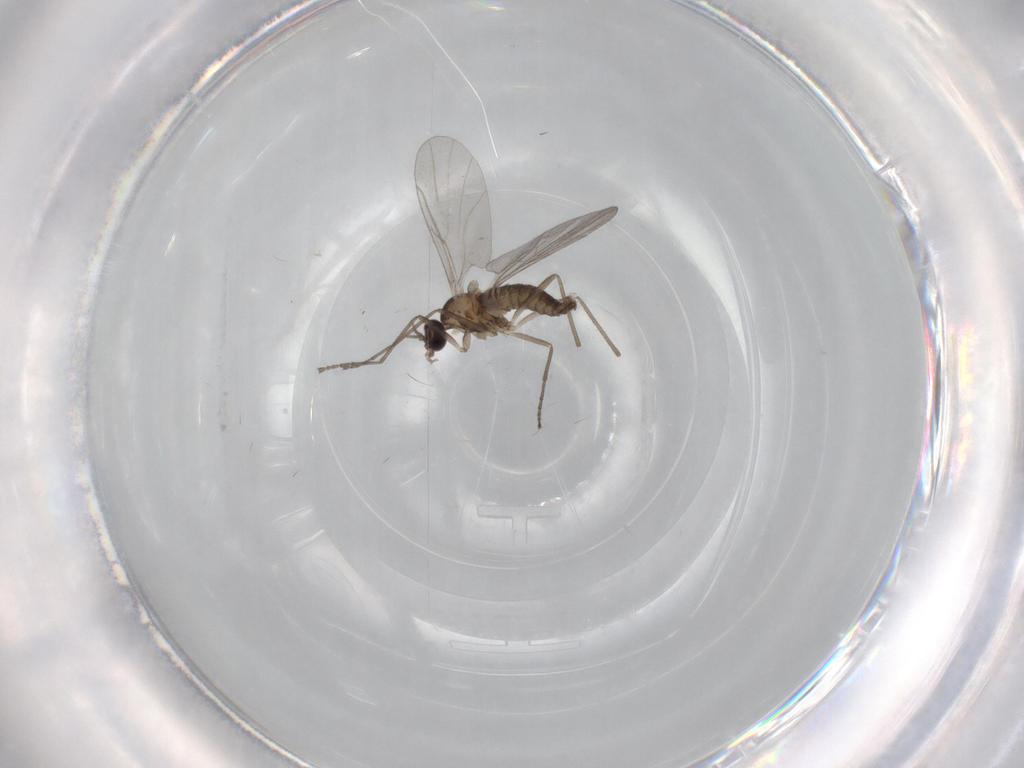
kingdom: Animalia
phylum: Arthropoda
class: Insecta
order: Diptera
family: Cecidomyiidae
